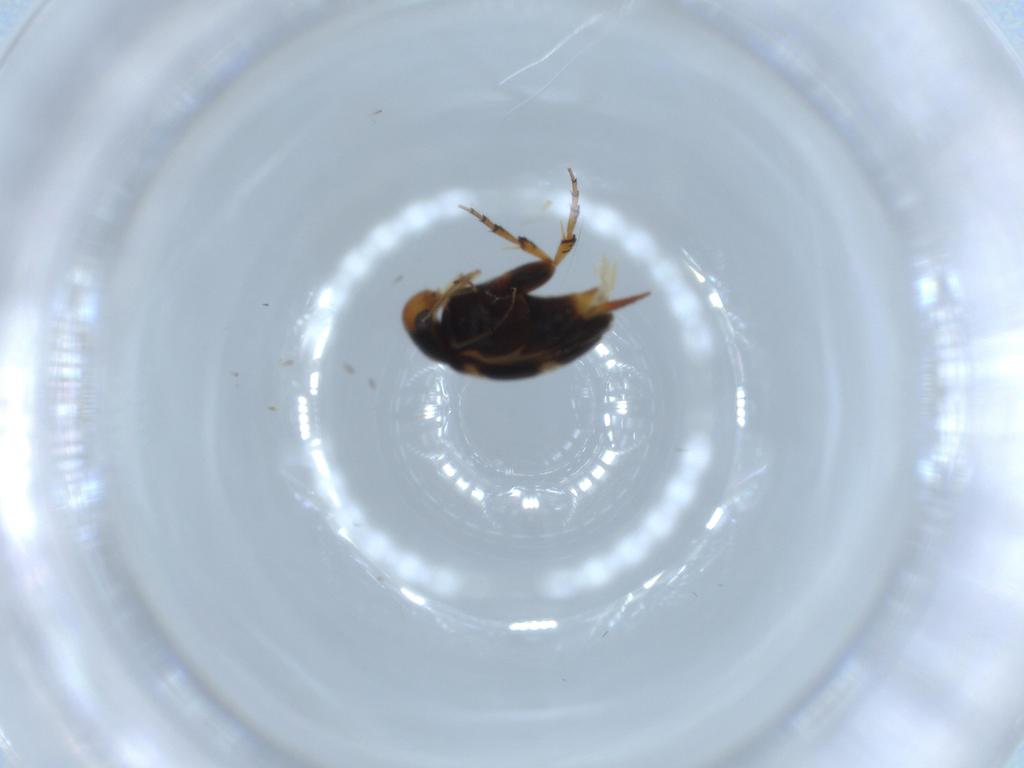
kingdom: Animalia
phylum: Arthropoda
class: Insecta
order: Coleoptera
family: Mordellidae
